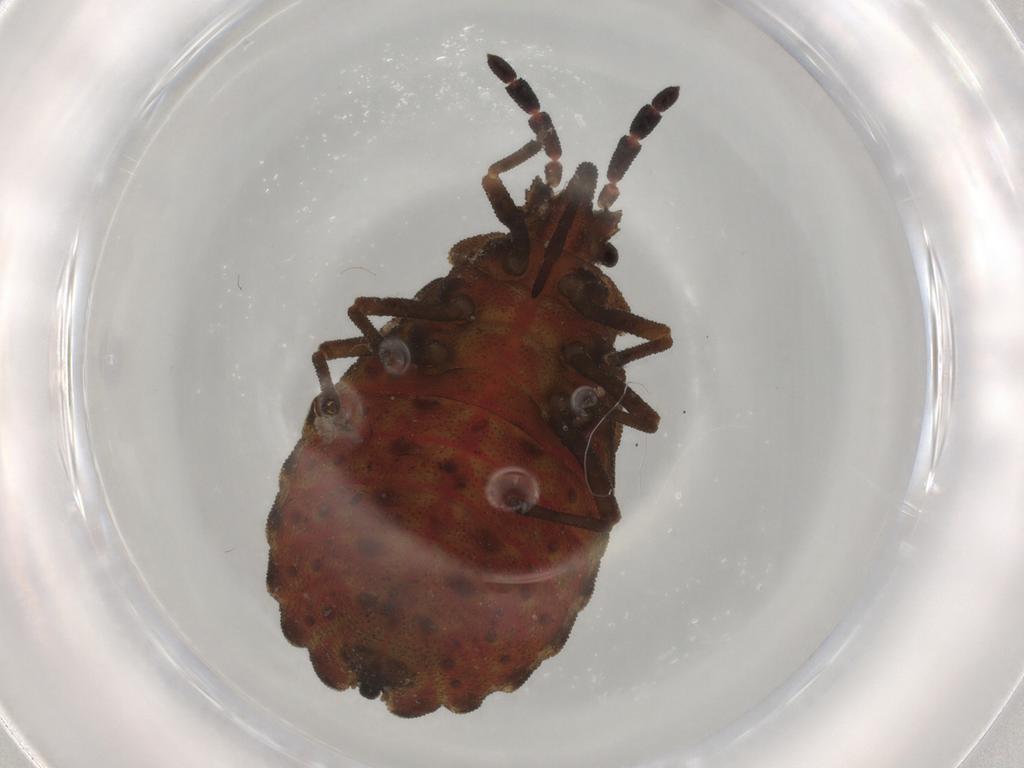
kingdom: Animalia
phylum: Arthropoda
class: Insecta
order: Hemiptera
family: Aradidae
